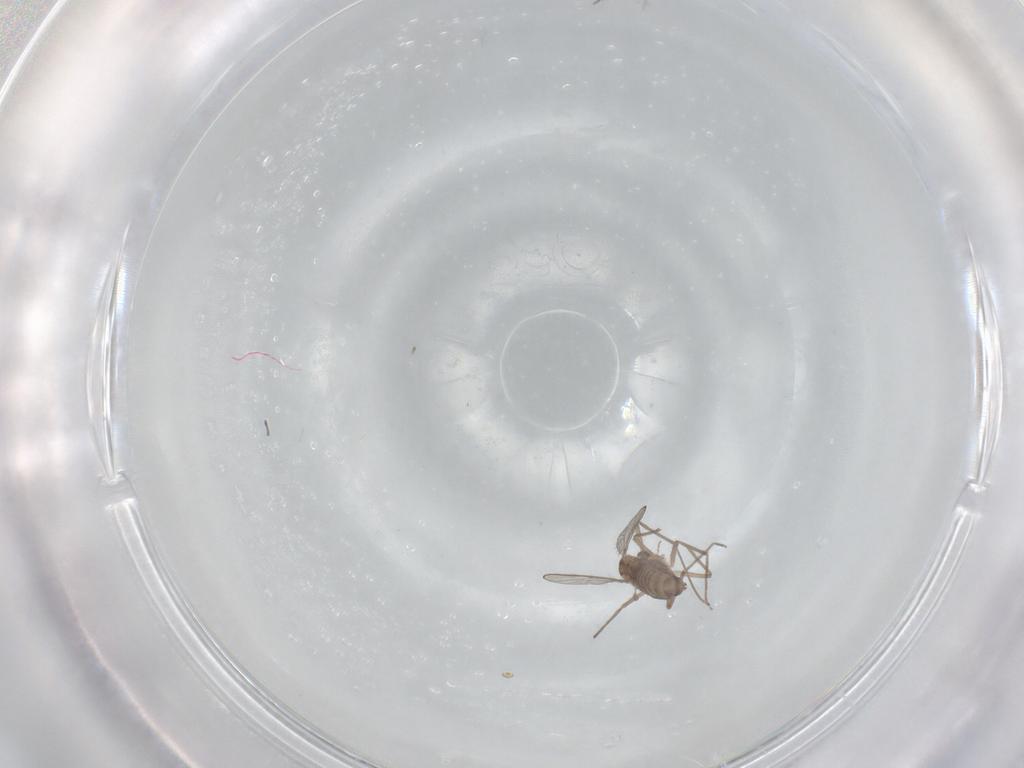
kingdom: Animalia
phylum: Arthropoda
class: Insecta
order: Diptera
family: Chironomidae
